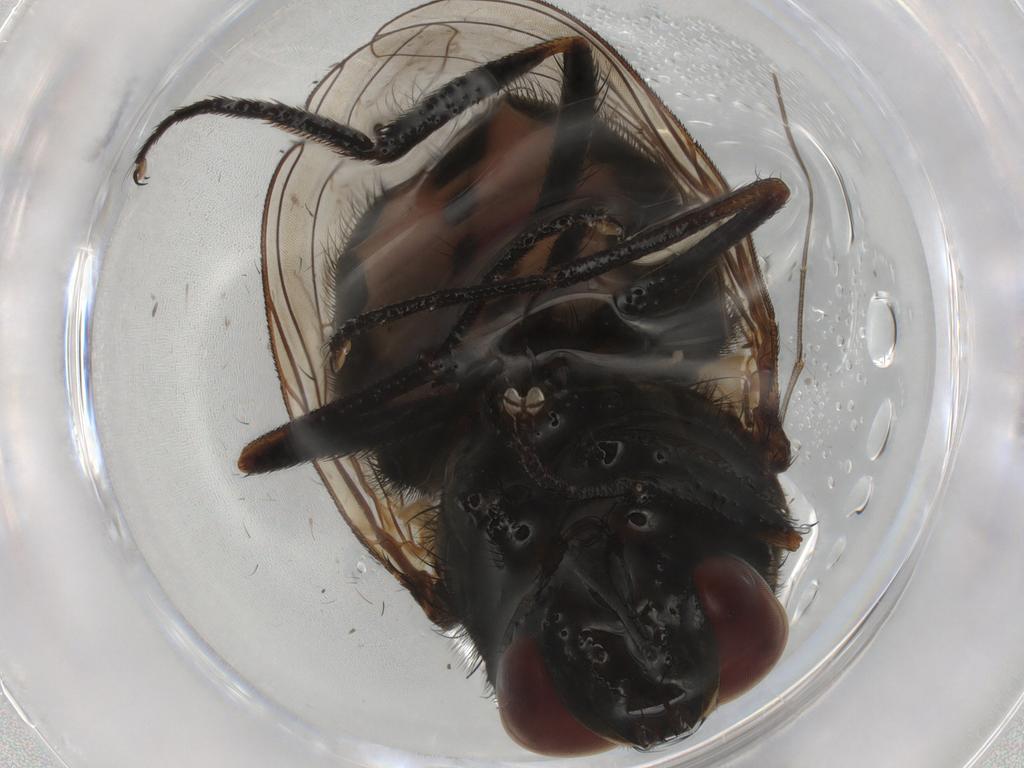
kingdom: Animalia
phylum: Arthropoda
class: Insecta
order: Diptera
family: Muscidae
